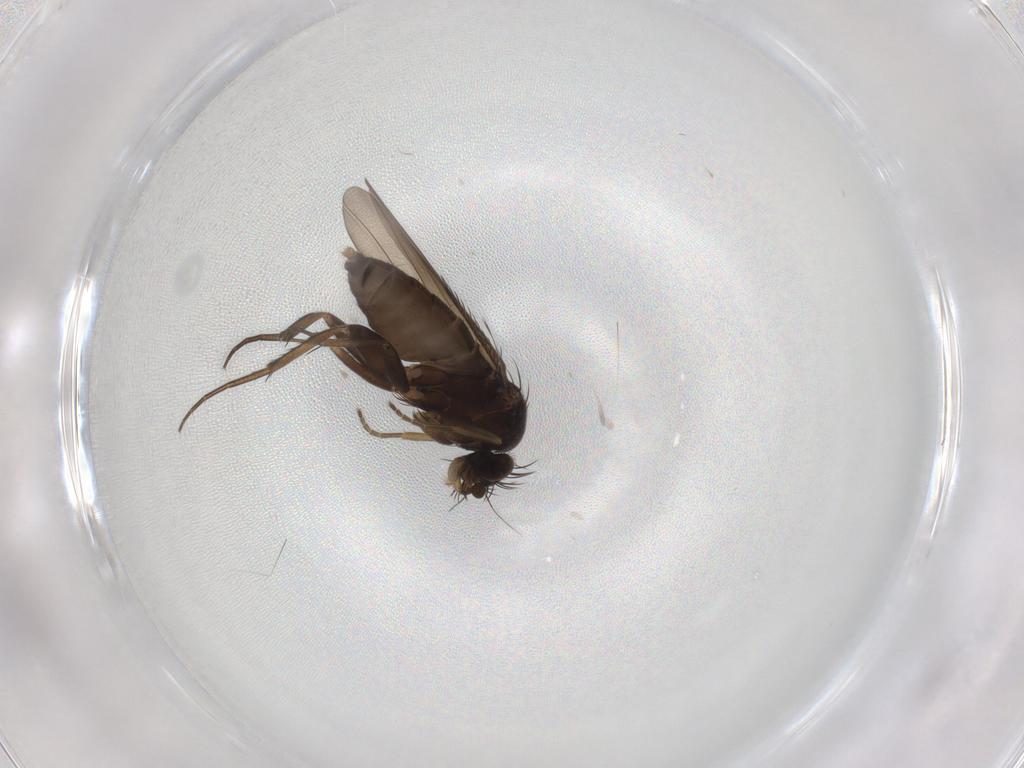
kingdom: Animalia
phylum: Arthropoda
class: Insecta
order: Diptera
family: Phoridae
